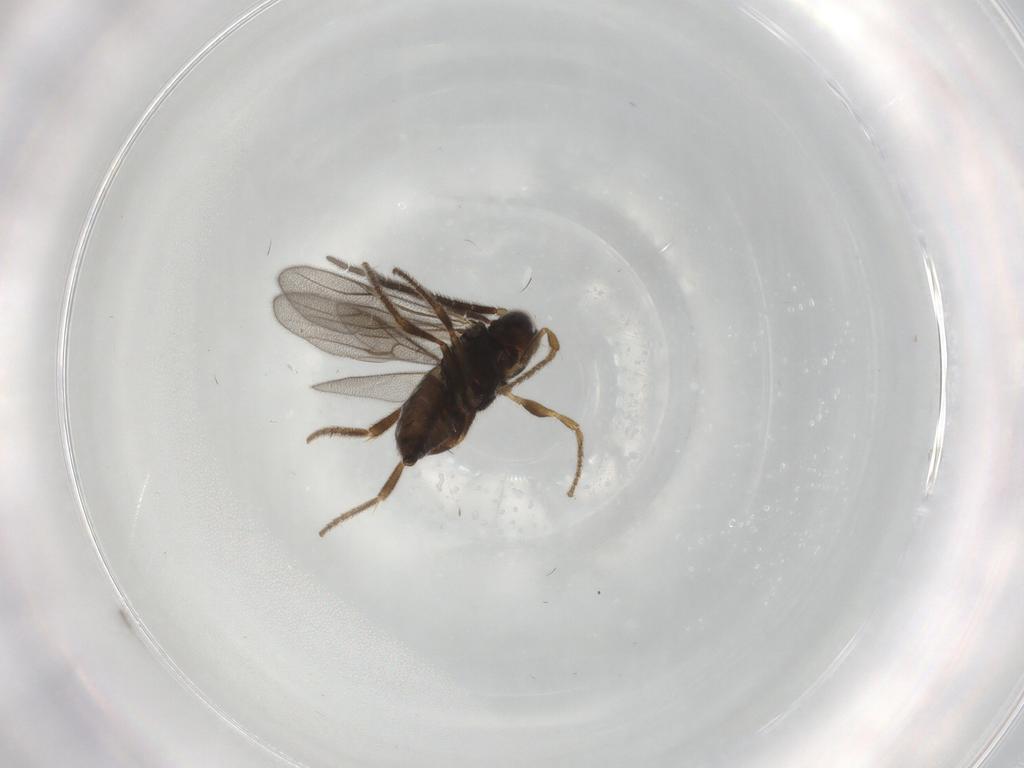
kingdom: Animalia
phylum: Arthropoda
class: Insecta
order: Hymenoptera
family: Dryinidae
